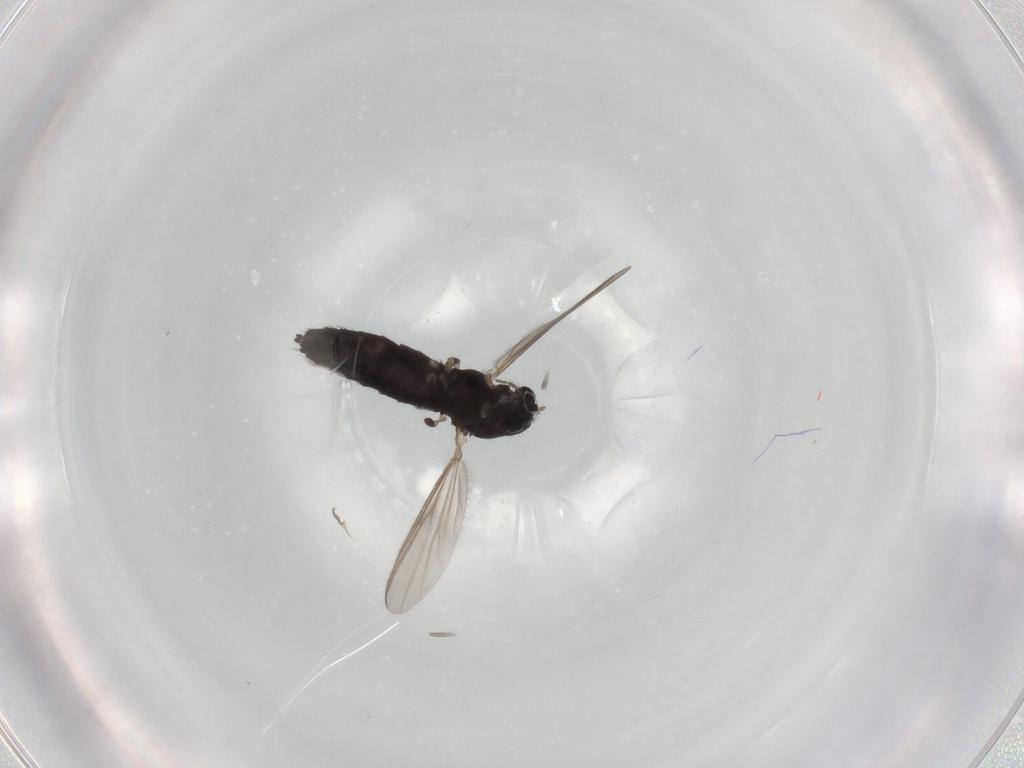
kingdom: Animalia
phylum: Arthropoda
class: Insecta
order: Diptera
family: Chironomidae
